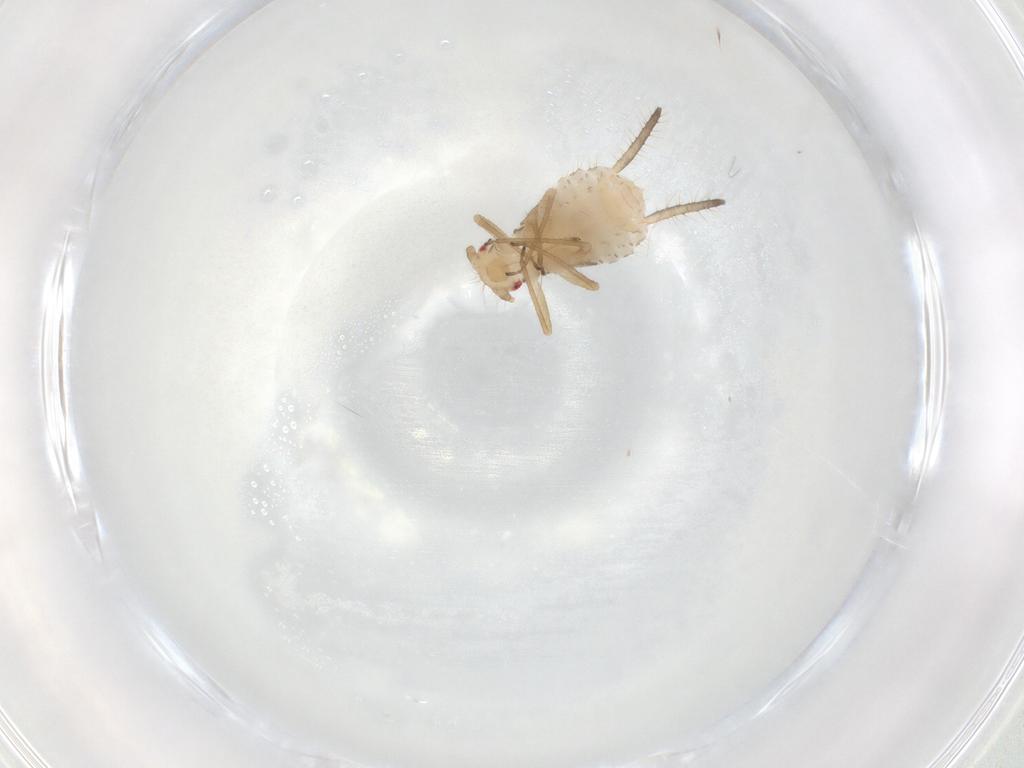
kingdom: Animalia
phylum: Arthropoda
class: Insecta
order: Hemiptera
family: Aphididae
